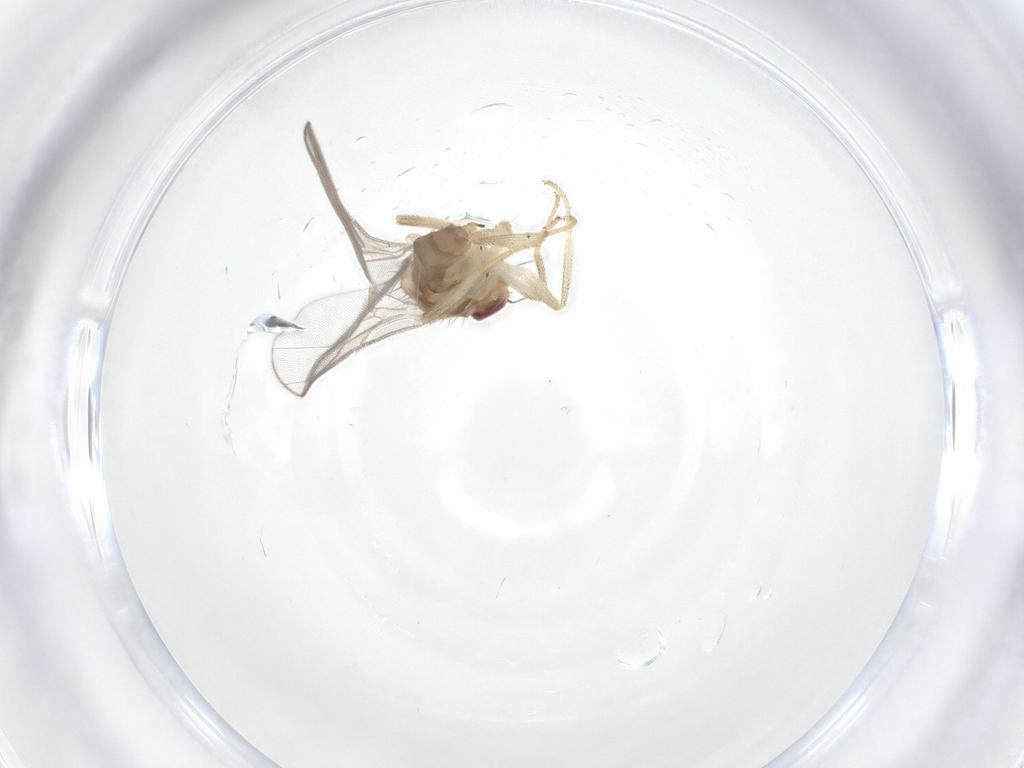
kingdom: Animalia
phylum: Arthropoda
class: Insecta
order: Diptera
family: Chloropidae
